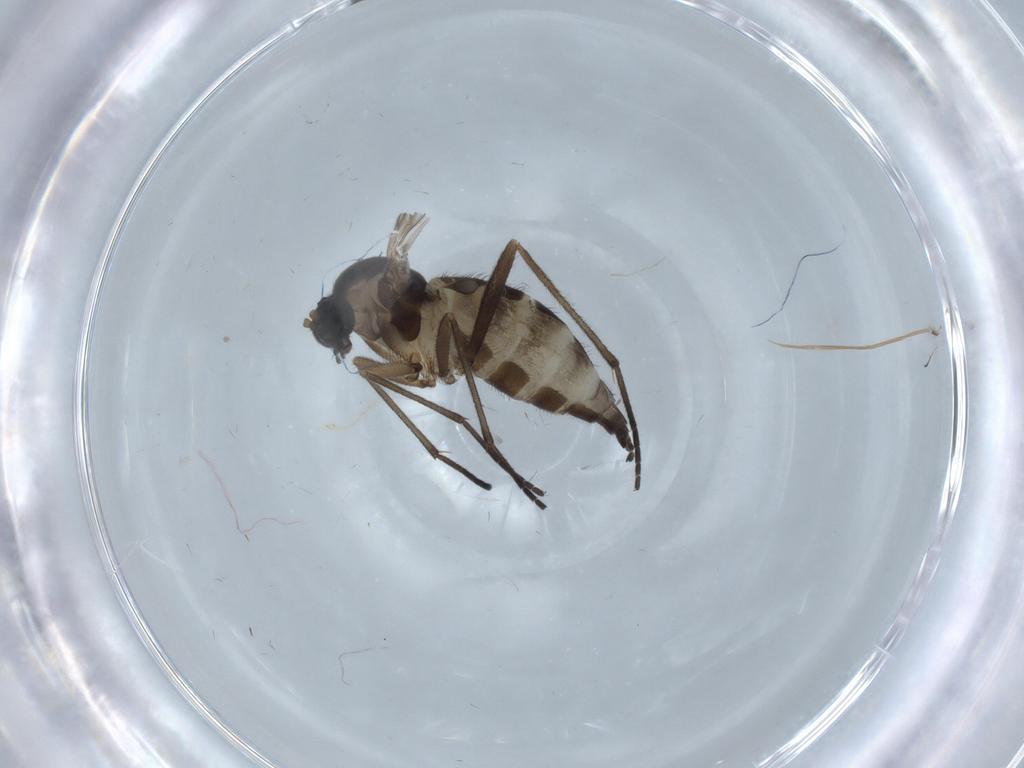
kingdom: Animalia
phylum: Arthropoda
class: Insecta
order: Diptera
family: Sciaridae
